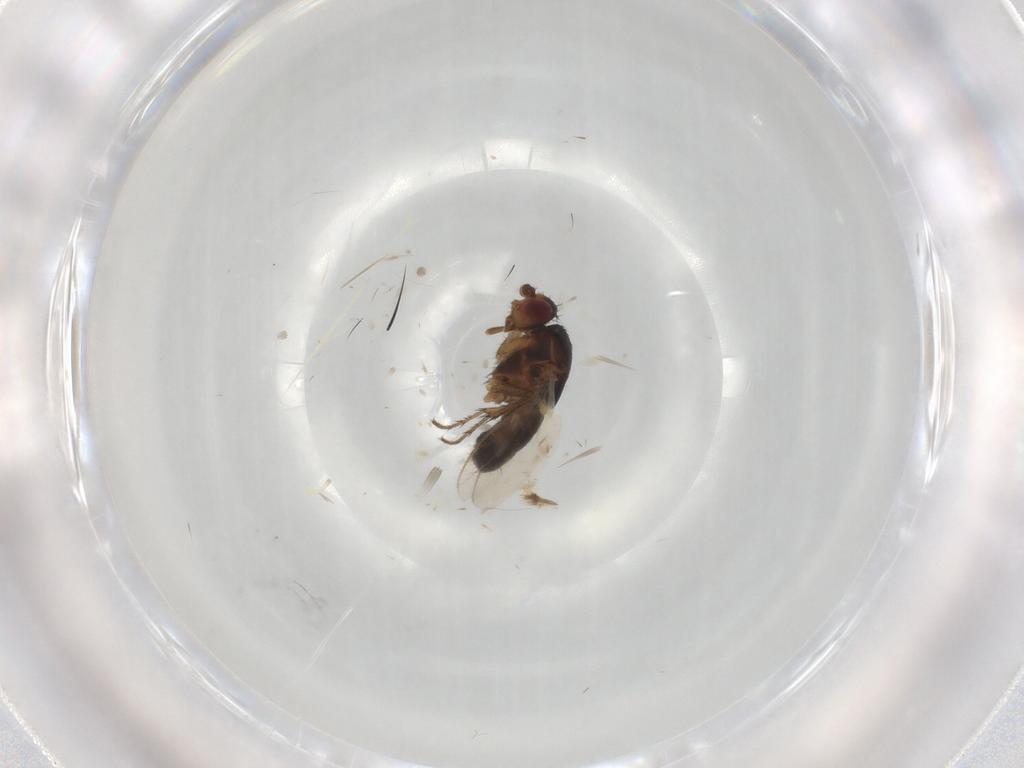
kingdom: Animalia
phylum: Arthropoda
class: Insecta
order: Diptera
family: Sphaeroceridae
